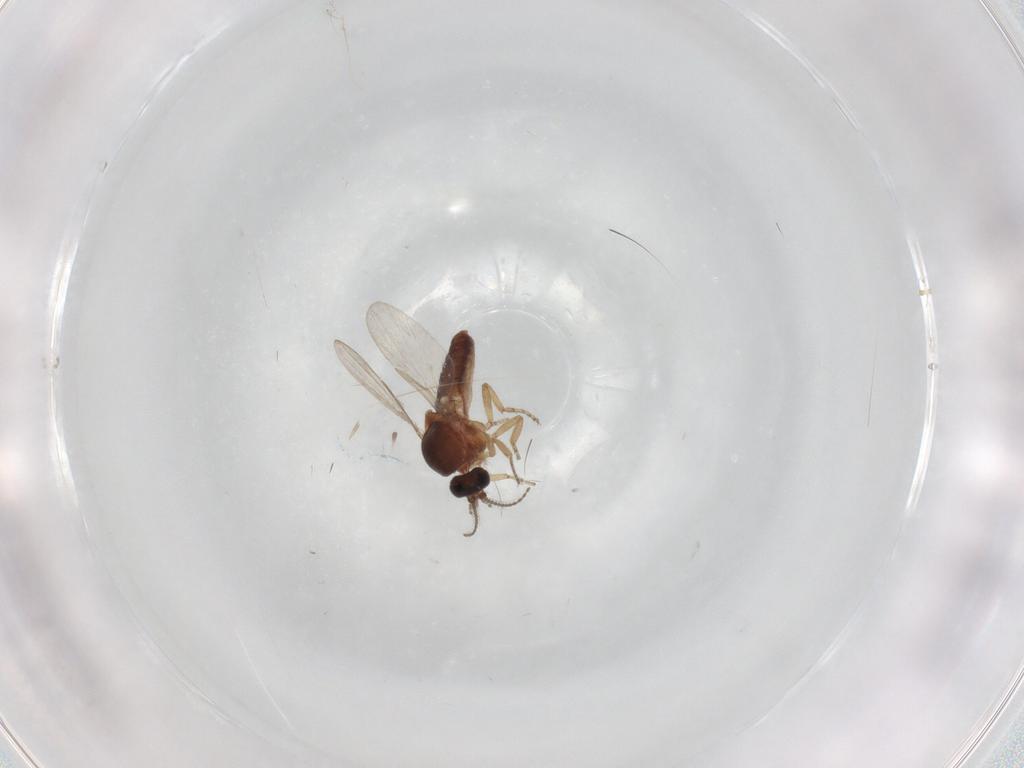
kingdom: Animalia
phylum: Arthropoda
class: Insecta
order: Diptera
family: Ceratopogonidae
